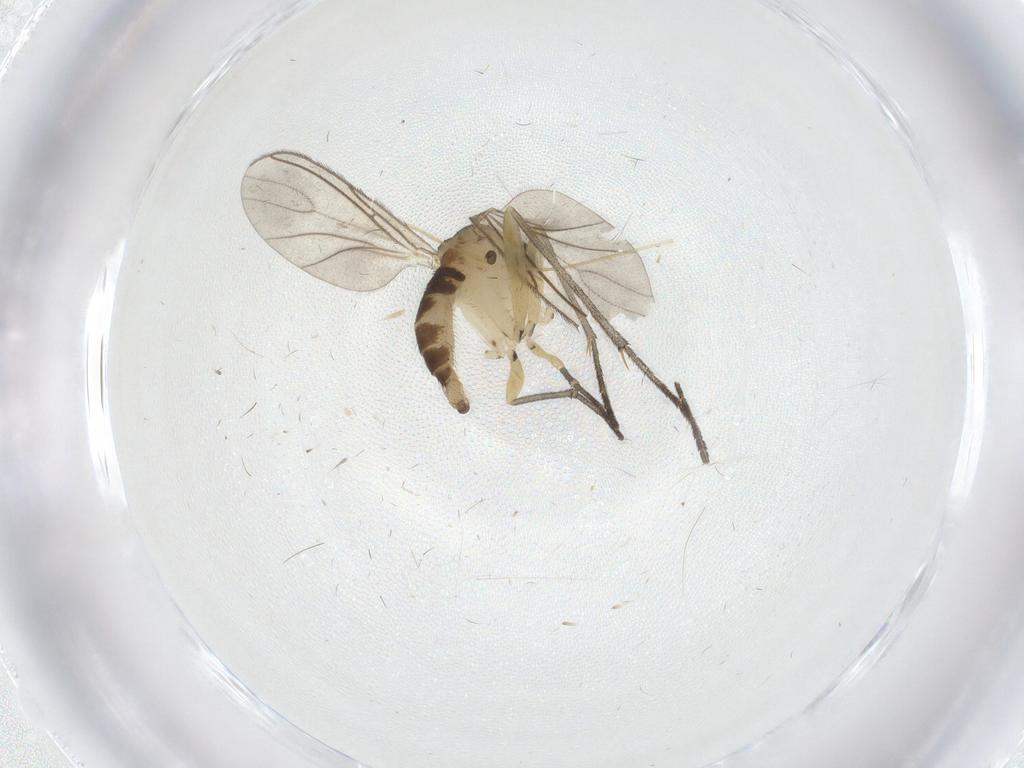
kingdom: Animalia
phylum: Arthropoda
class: Insecta
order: Diptera
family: Sciaridae
